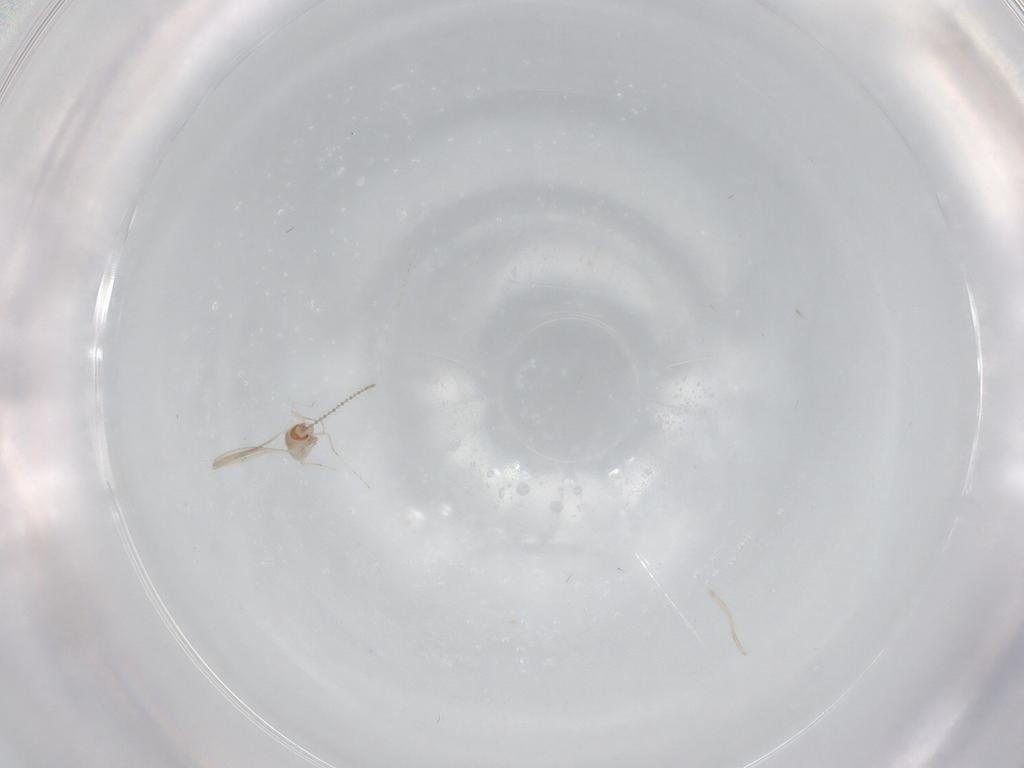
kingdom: Animalia
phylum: Arthropoda
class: Insecta
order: Diptera
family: Cecidomyiidae
